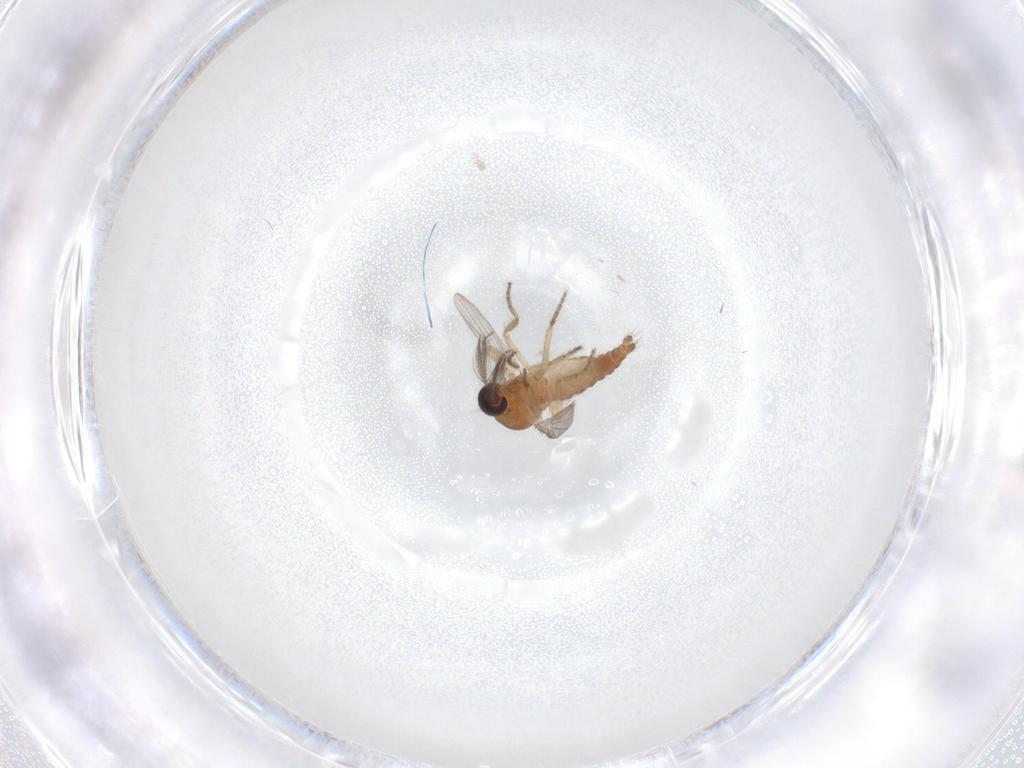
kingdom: Animalia
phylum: Arthropoda
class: Insecta
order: Diptera
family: Ceratopogonidae
